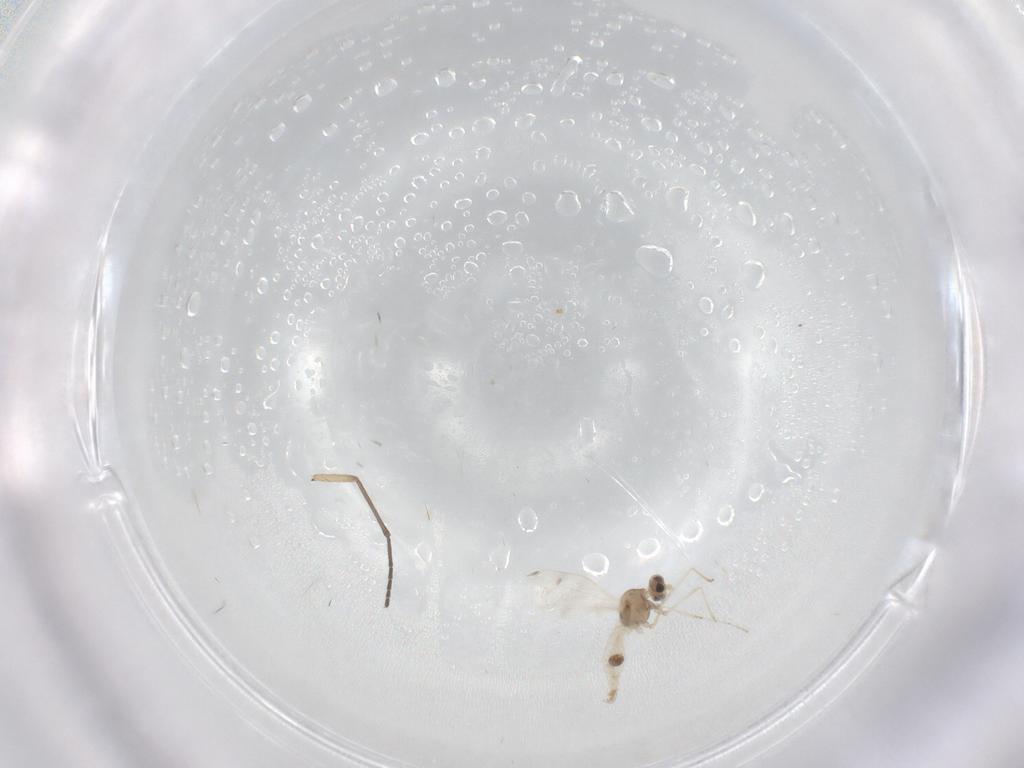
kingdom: Animalia
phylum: Arthropoda
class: Insecta
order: Diptera
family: Cecidomyiidae
